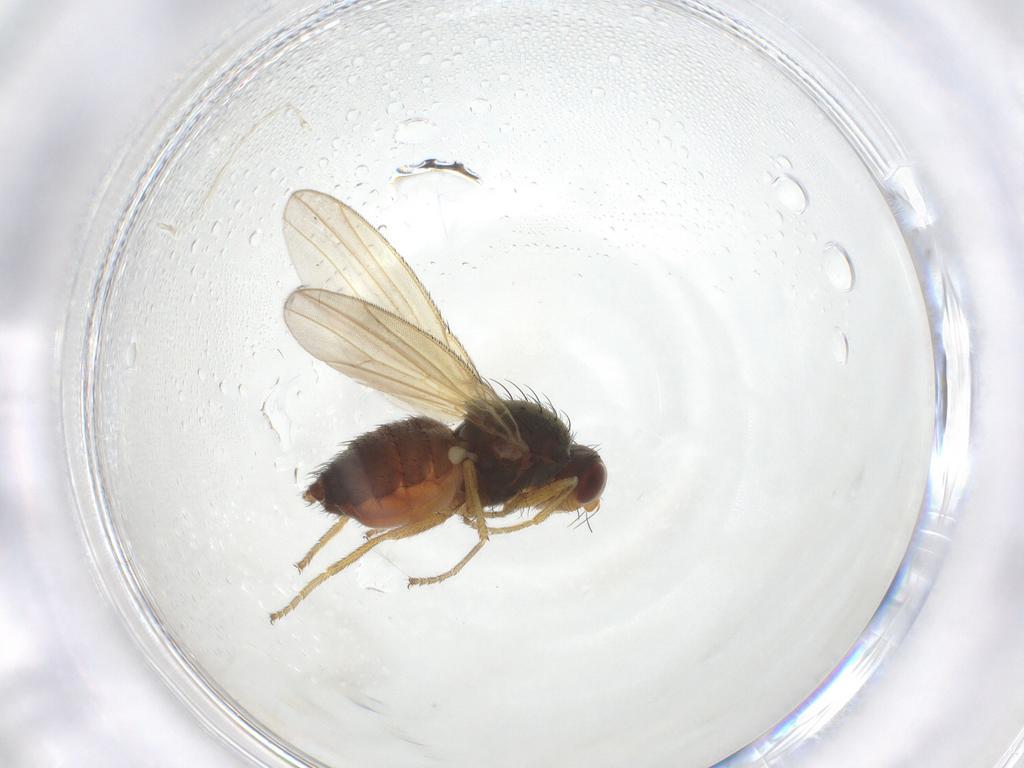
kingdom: Animalia
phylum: Arthropoda
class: Insecta
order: Diptera
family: Heleomyzidae
